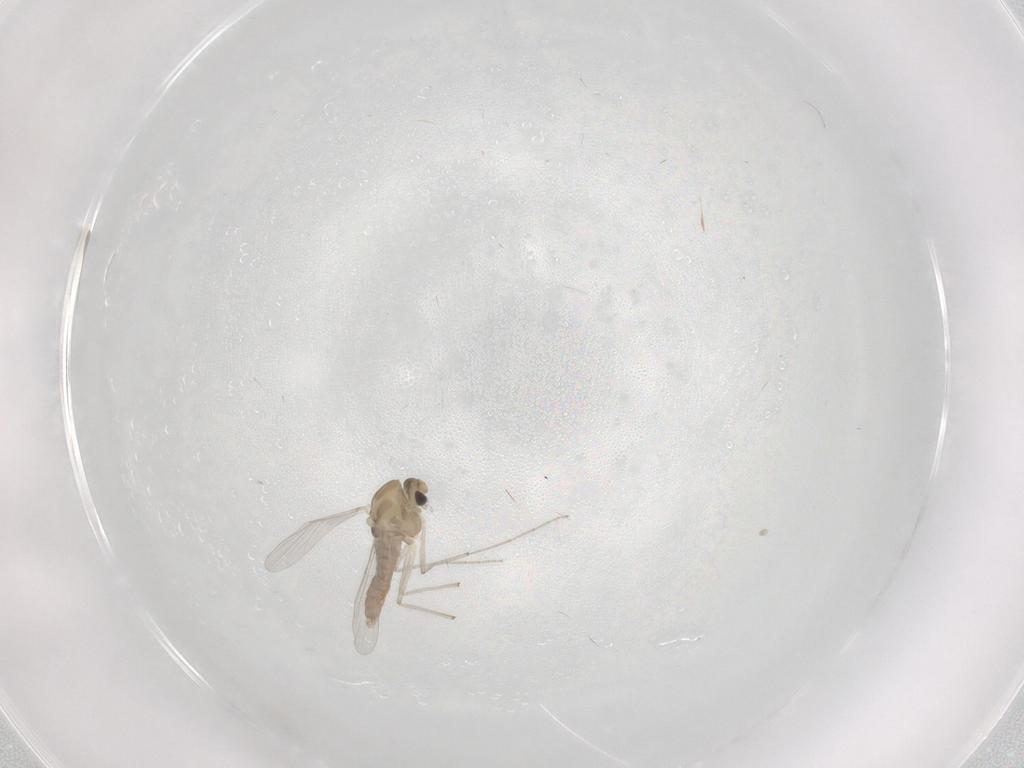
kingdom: Animalia
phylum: Arthropoda
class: Insecta
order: Diptera
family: Chironomidae
